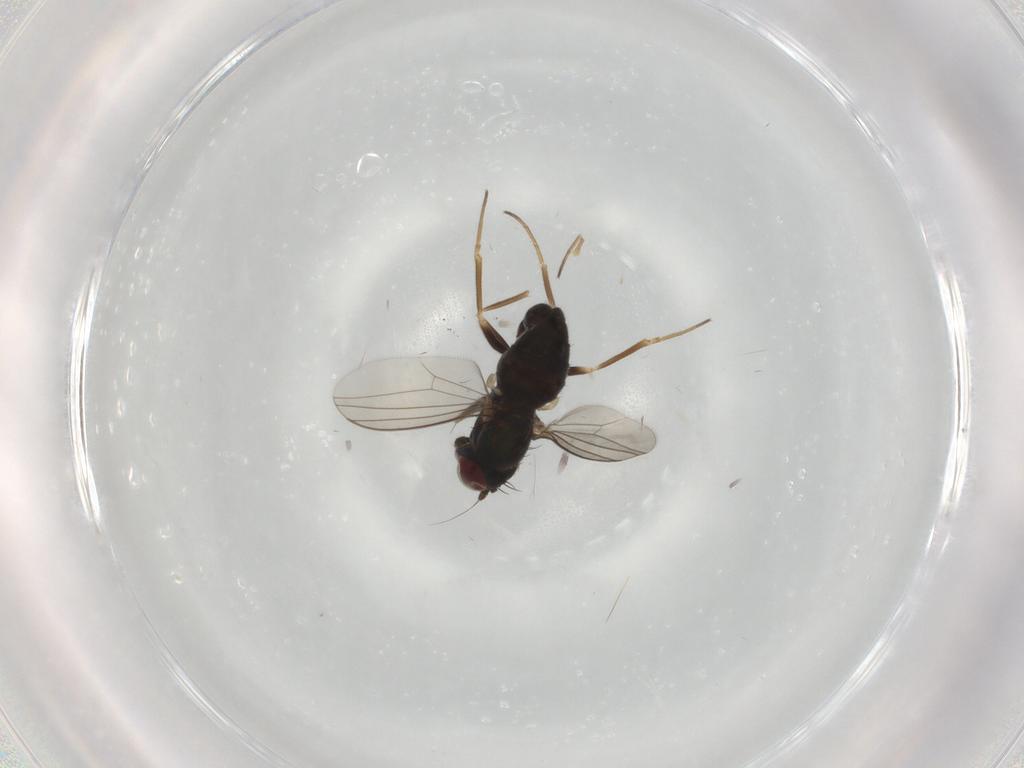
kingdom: Animalia
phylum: Arthropoda
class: Insecta
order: Diptera
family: Dolichopodidae
